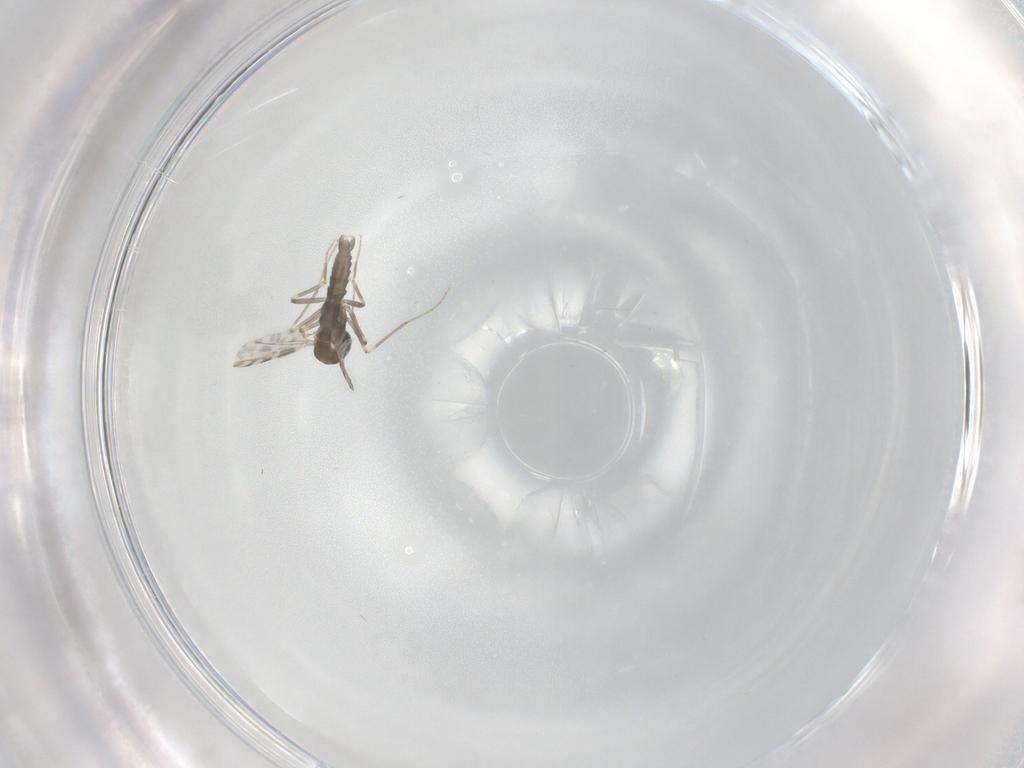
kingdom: Animalia
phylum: Arthropoda
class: Insecta
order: Diptera
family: Ceratopogonidae
